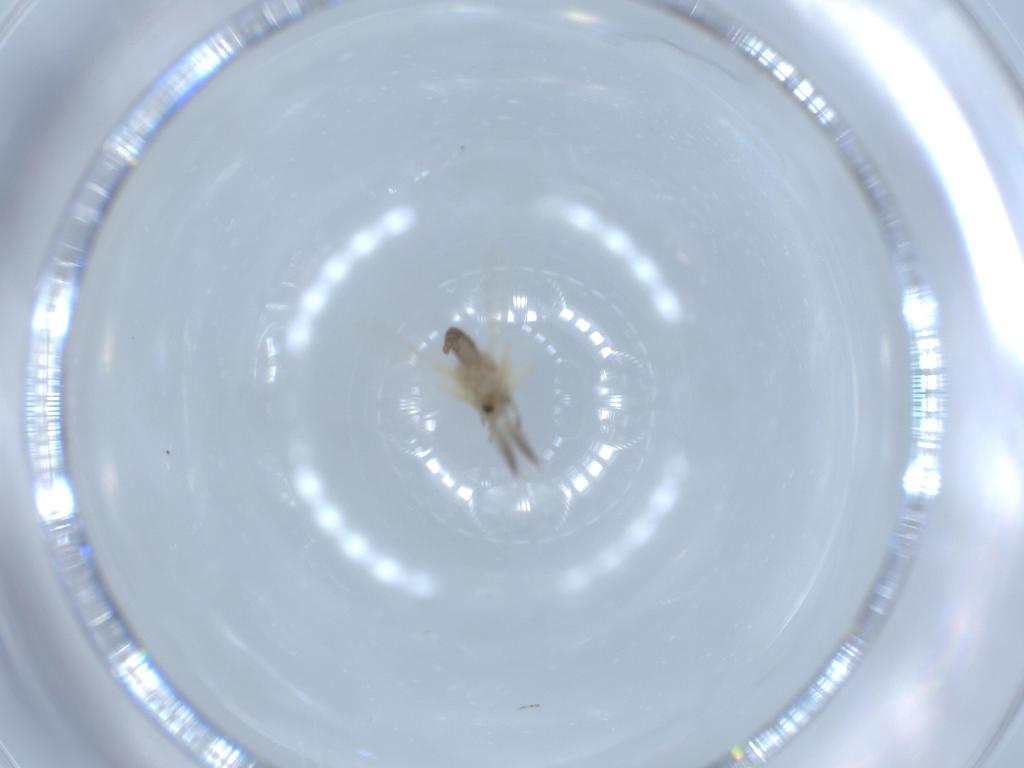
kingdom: Animalia
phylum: Arthropoda
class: Insecta
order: Diptera
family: Ceratopogonidae
